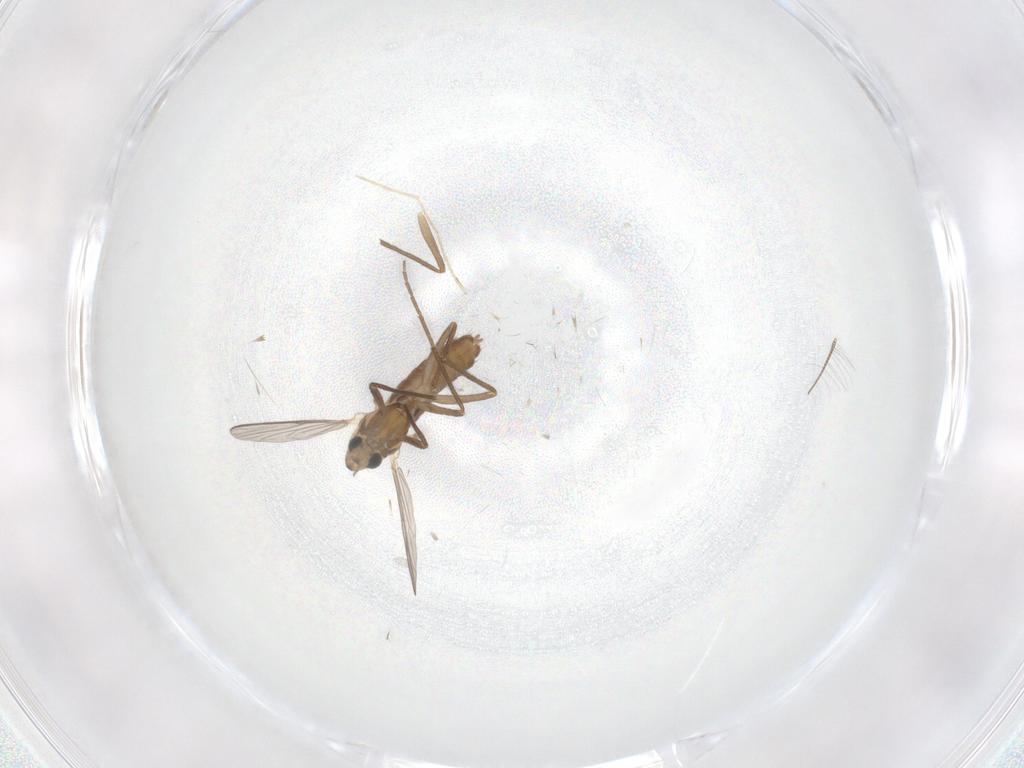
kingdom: Animalia
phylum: Arthropoda
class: Insecta
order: Diptera
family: Chironomidae
